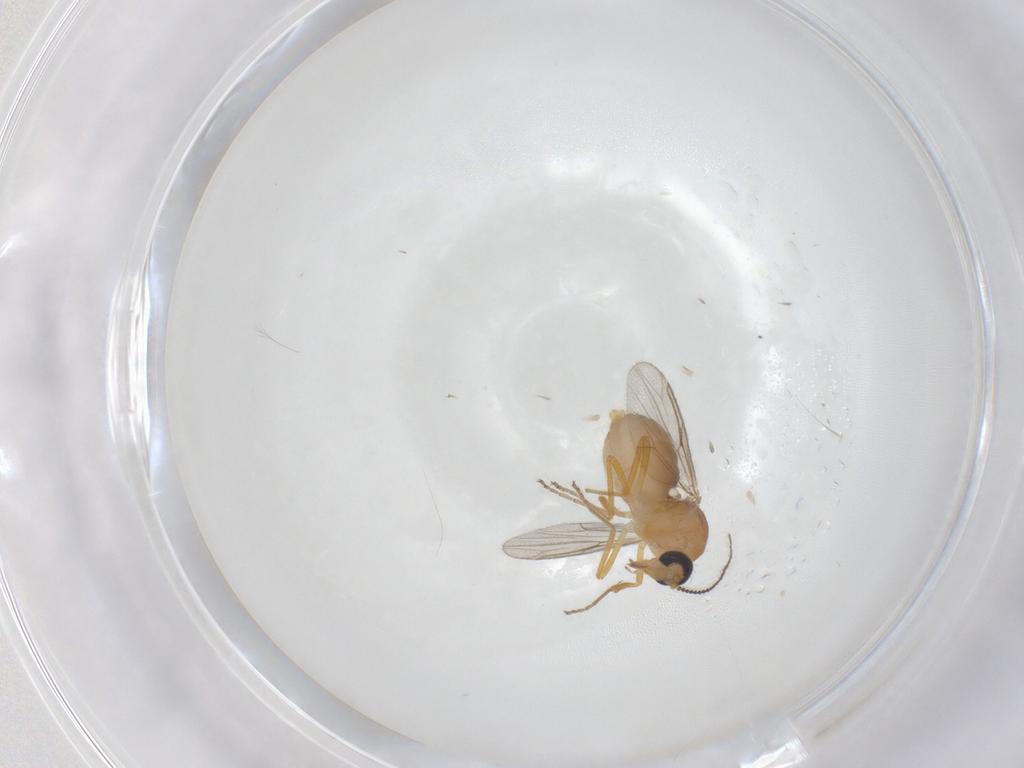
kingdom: Animalia
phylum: Arthropoda
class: Insecta
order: Diptera
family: Ceratopogonidae
